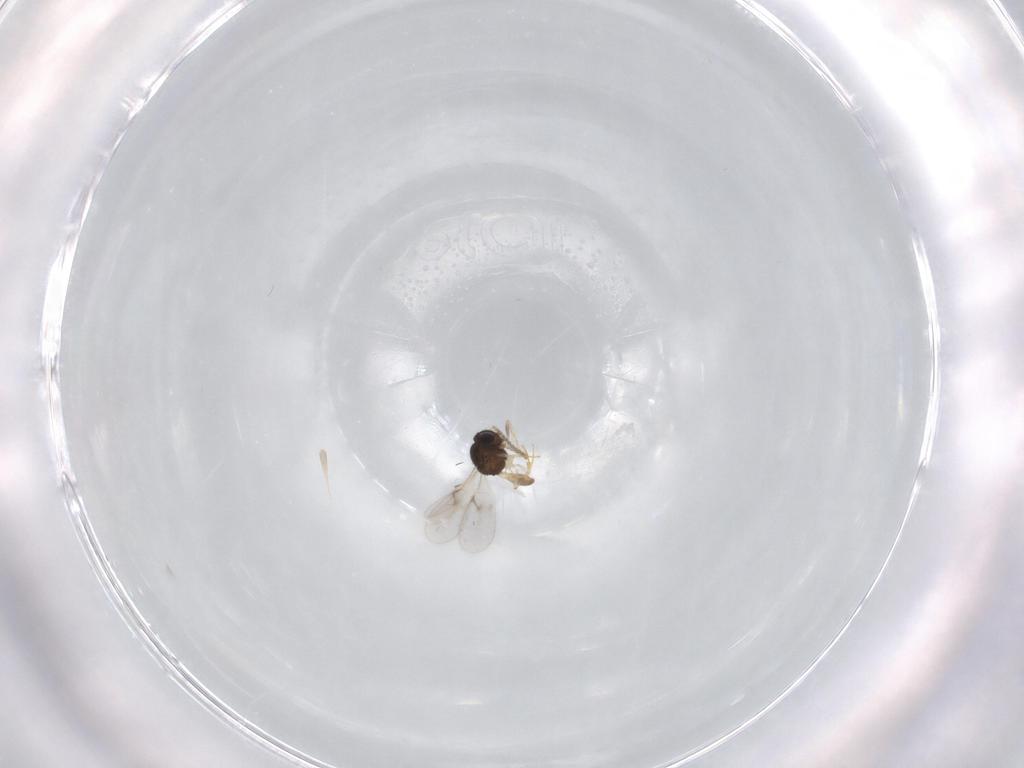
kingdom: Animalia
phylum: Arthropoda
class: Insecta
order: Hymenoptera
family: Scelionidae
